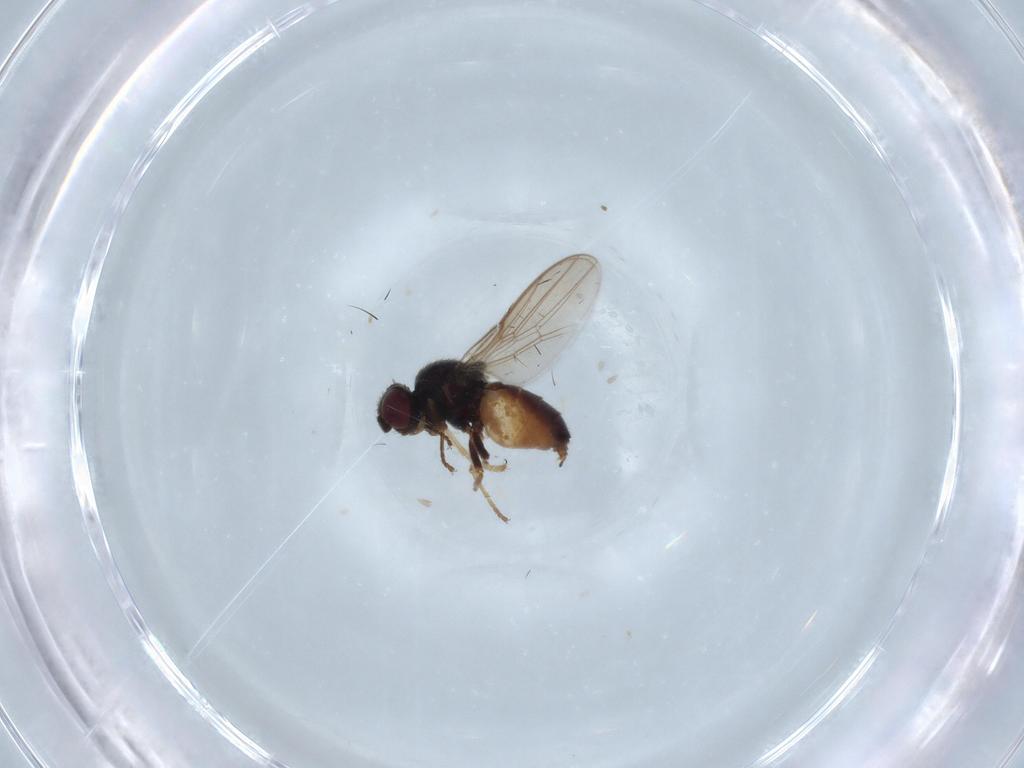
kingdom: Animalia
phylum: Arthropoda
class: Insecta
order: Diptera
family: Chloropidae
